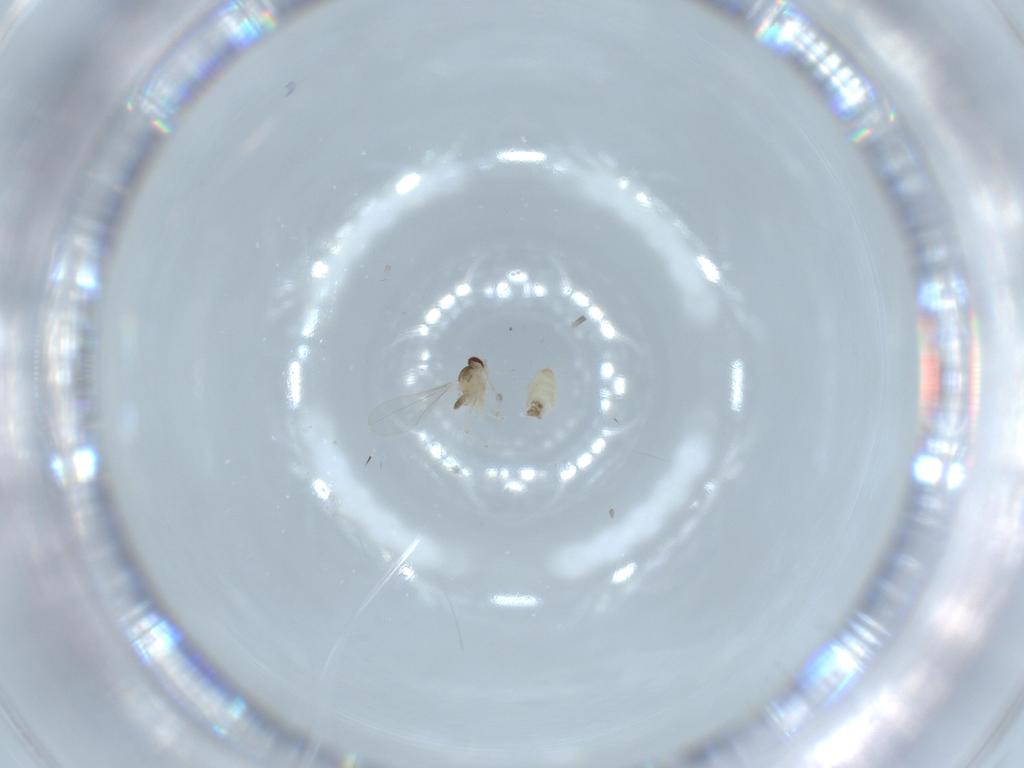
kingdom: Animalia
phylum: Arthropoda
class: Insecta
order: Diptera
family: Cecidomyiidae
